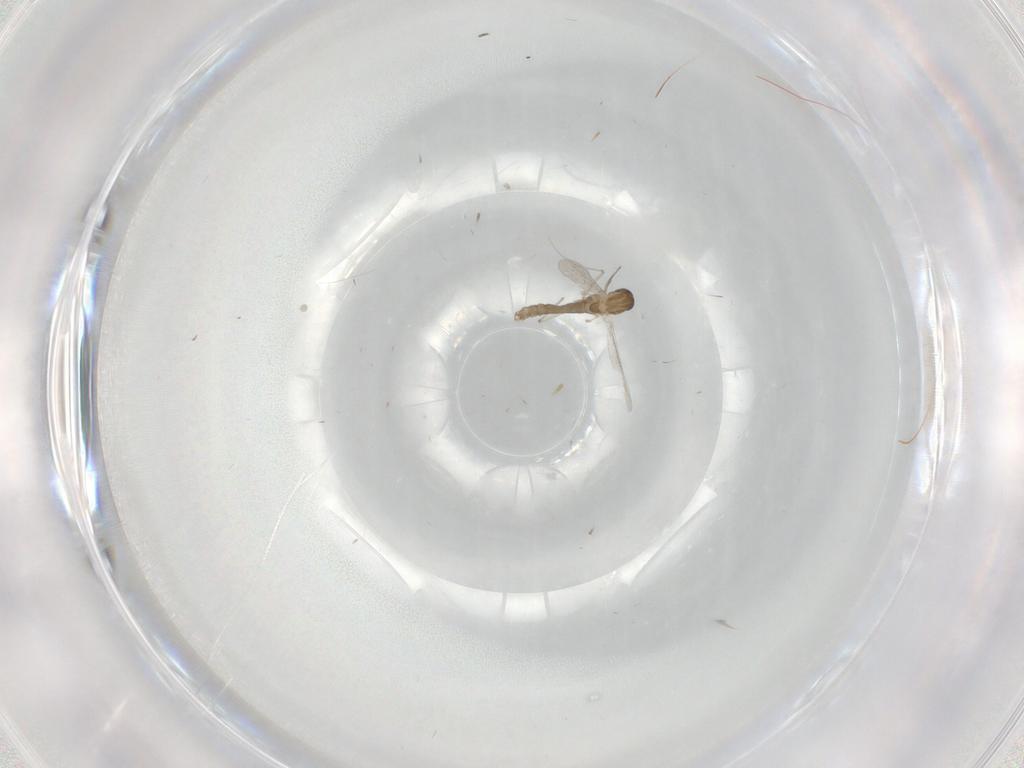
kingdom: Animalia
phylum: Arthropoda
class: Insecta
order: Diptera
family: Chironomidae
